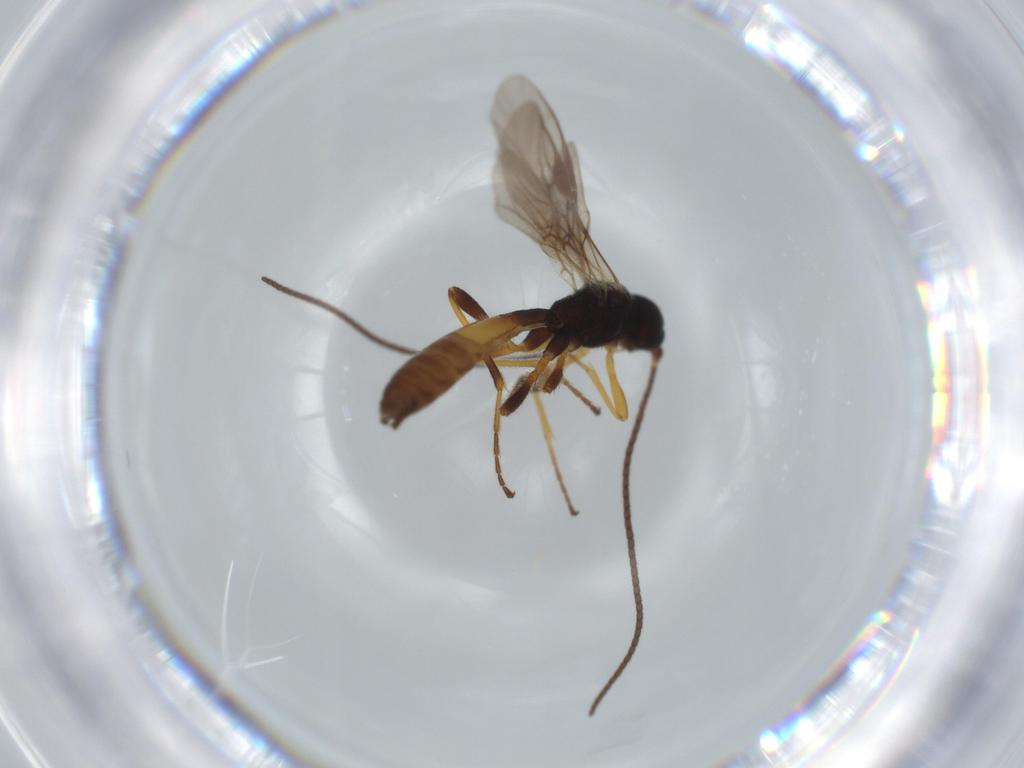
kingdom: Animalia
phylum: Arthropoda
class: Insecta
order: Hymenoptera
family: Braconidae
